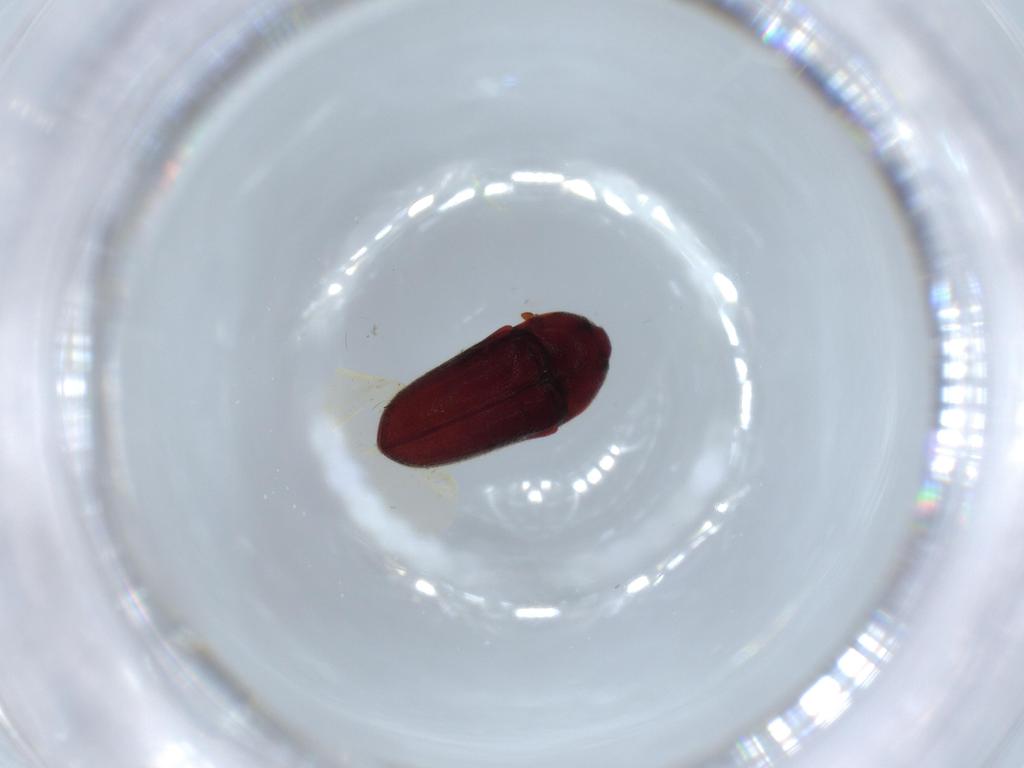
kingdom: Animalia
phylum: Arthropoda
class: Insecta
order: Coleoptera
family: Throscidae
